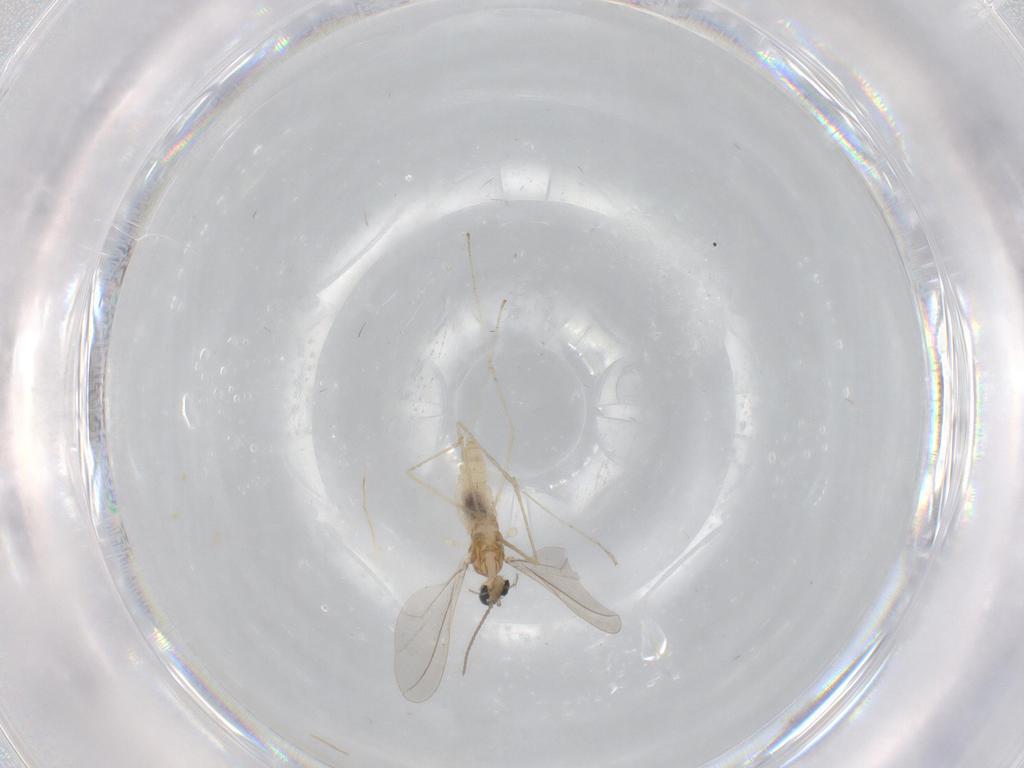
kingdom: Animalia
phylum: Arthropoda
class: Insecta
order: Diptera
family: Cecidomyiidae
